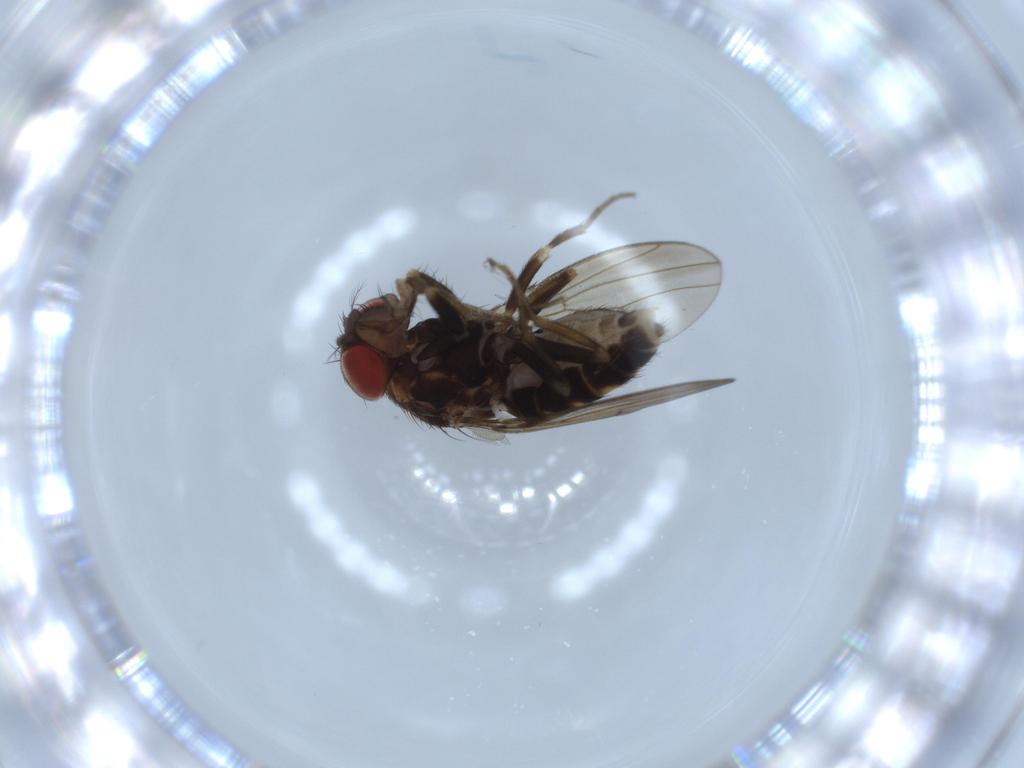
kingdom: Animalia
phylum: Arthropoda
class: Insecta
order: Diptera
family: Drosophilidae
